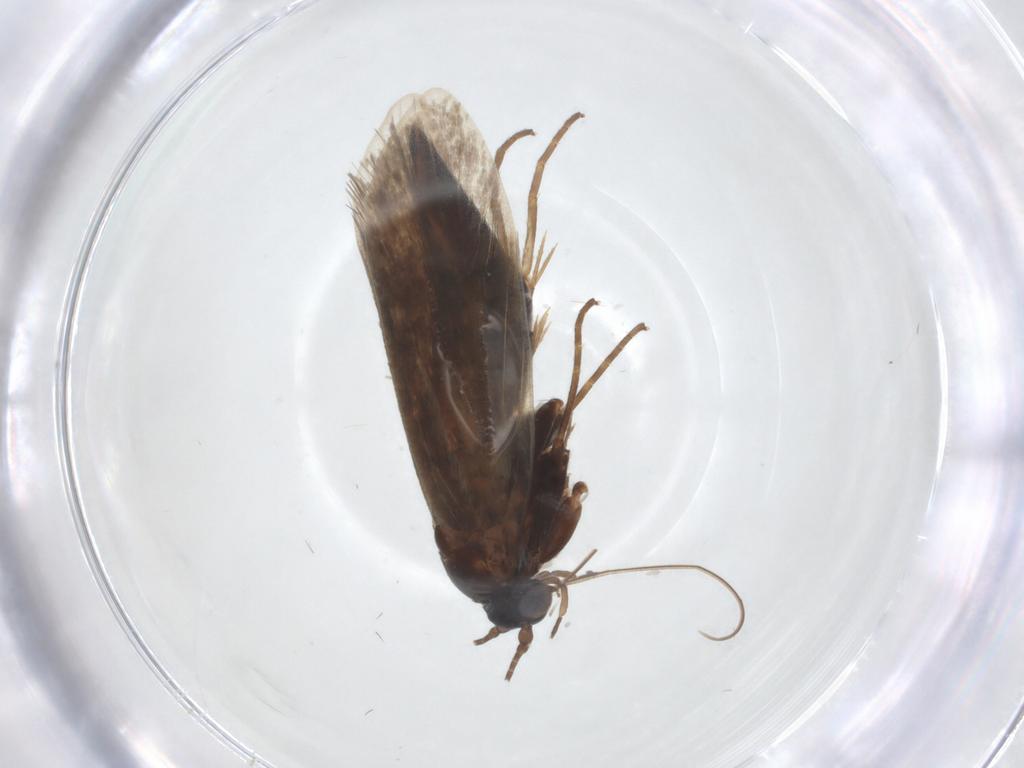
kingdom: Animalia
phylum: Arthropoda
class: Insecta
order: Lepidoptera
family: Adelidae
